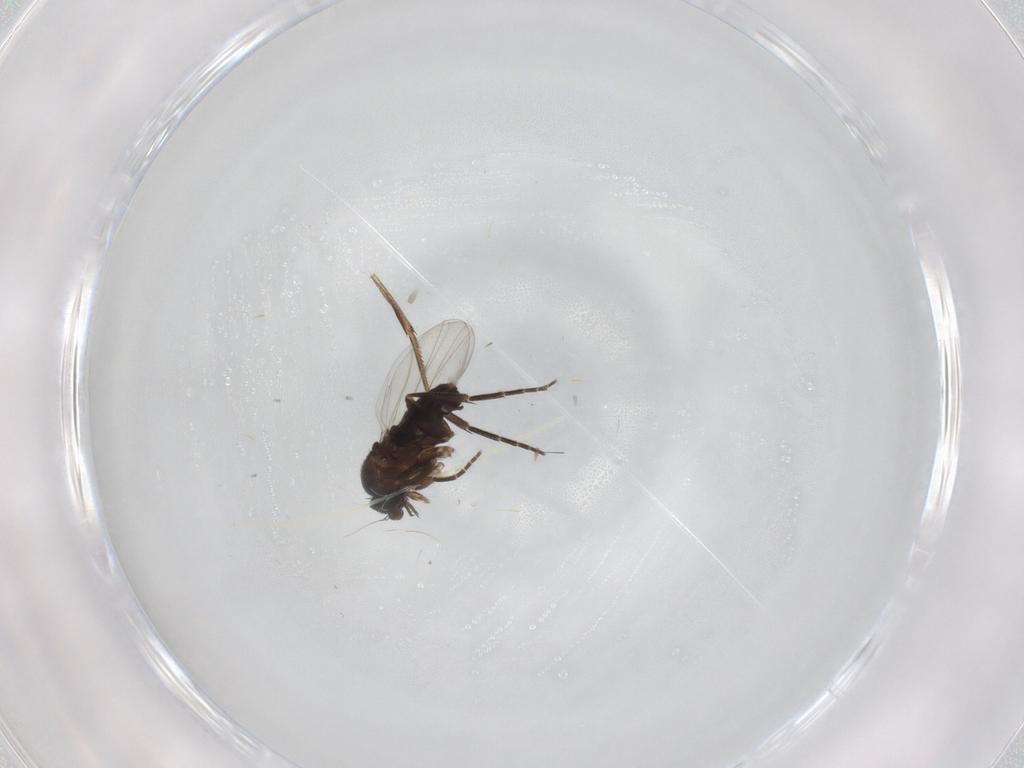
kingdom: Animalia
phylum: Arthropoda
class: Insecta
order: Diptera
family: Phoridae
